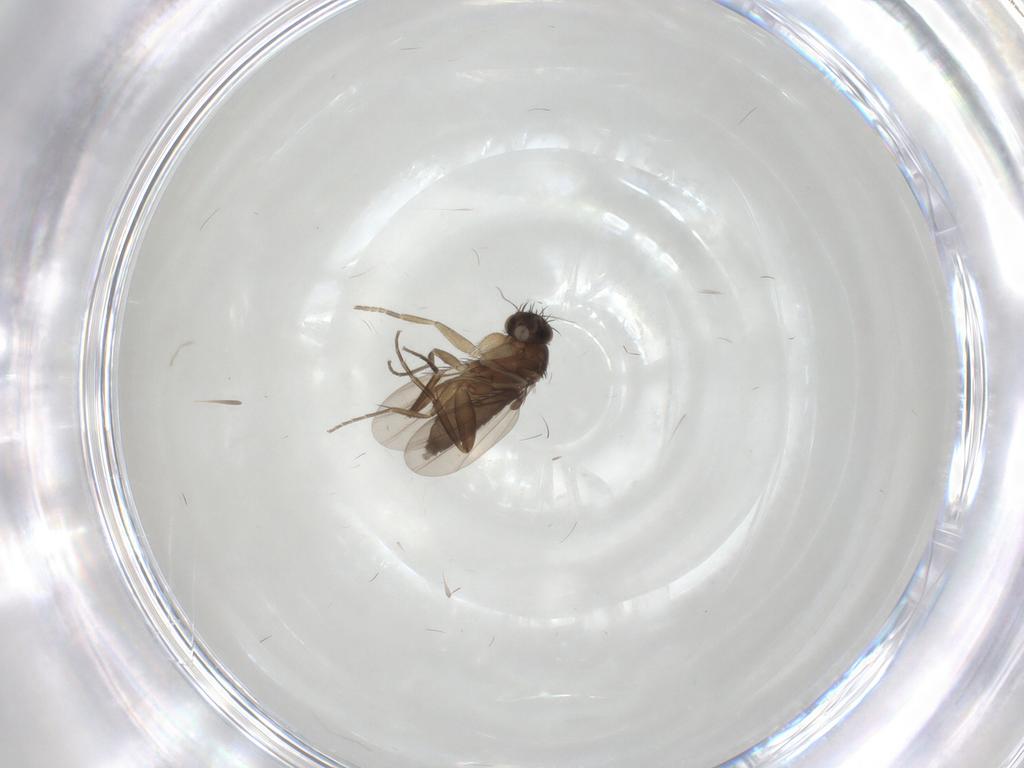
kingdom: Animalia
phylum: Arthropoda
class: Insecta
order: Diptera
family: Phoridae
